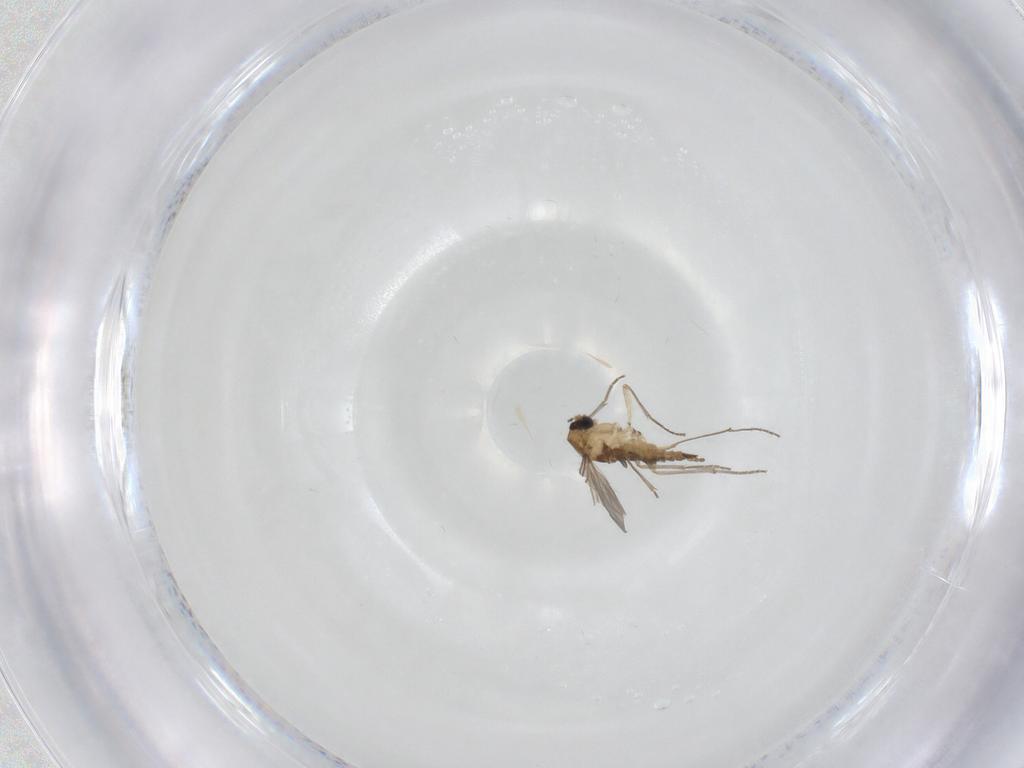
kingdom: Animalia
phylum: Arthropoda
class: Insecta
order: Diptera
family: Sciaridae
